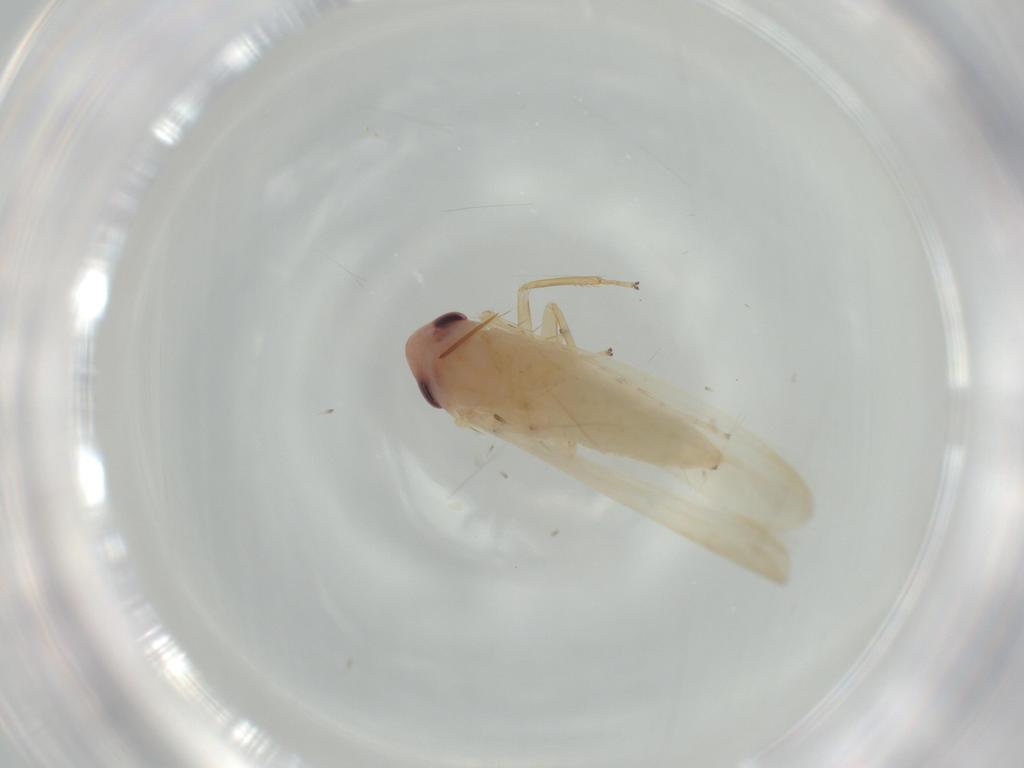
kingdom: Animalia
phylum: Arthropoda
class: Insecta
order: Hemiptera
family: Cicadellidae
